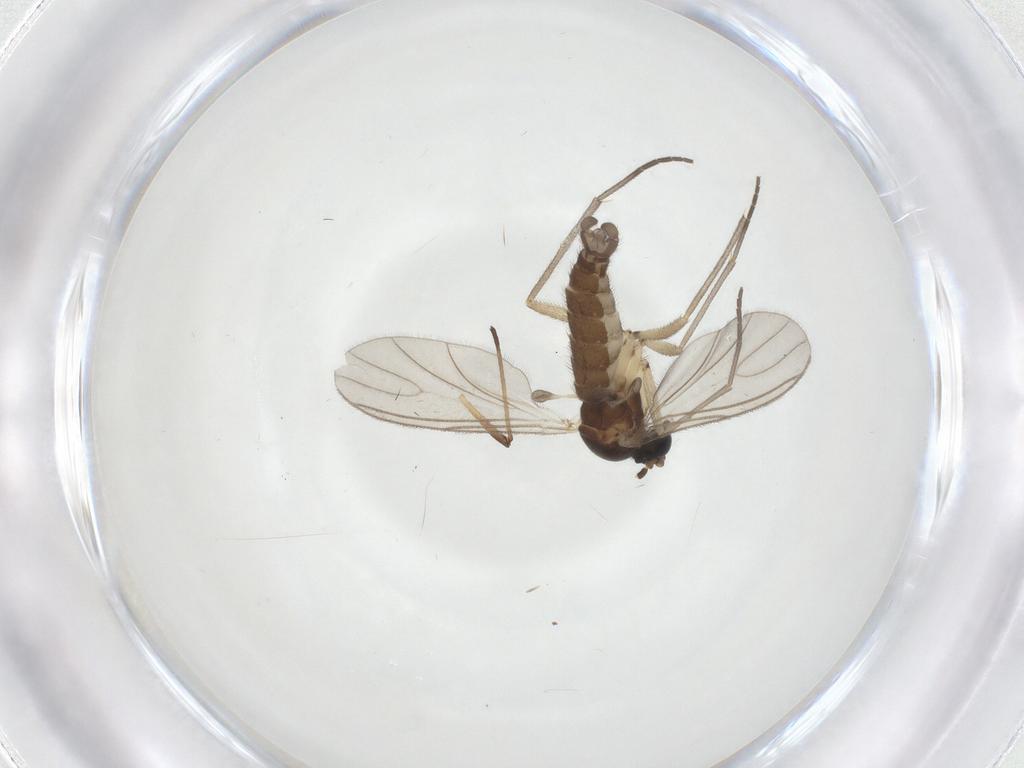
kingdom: Animalia
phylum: Arthropoda
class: Insecta
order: Diptera
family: Sciaridae
